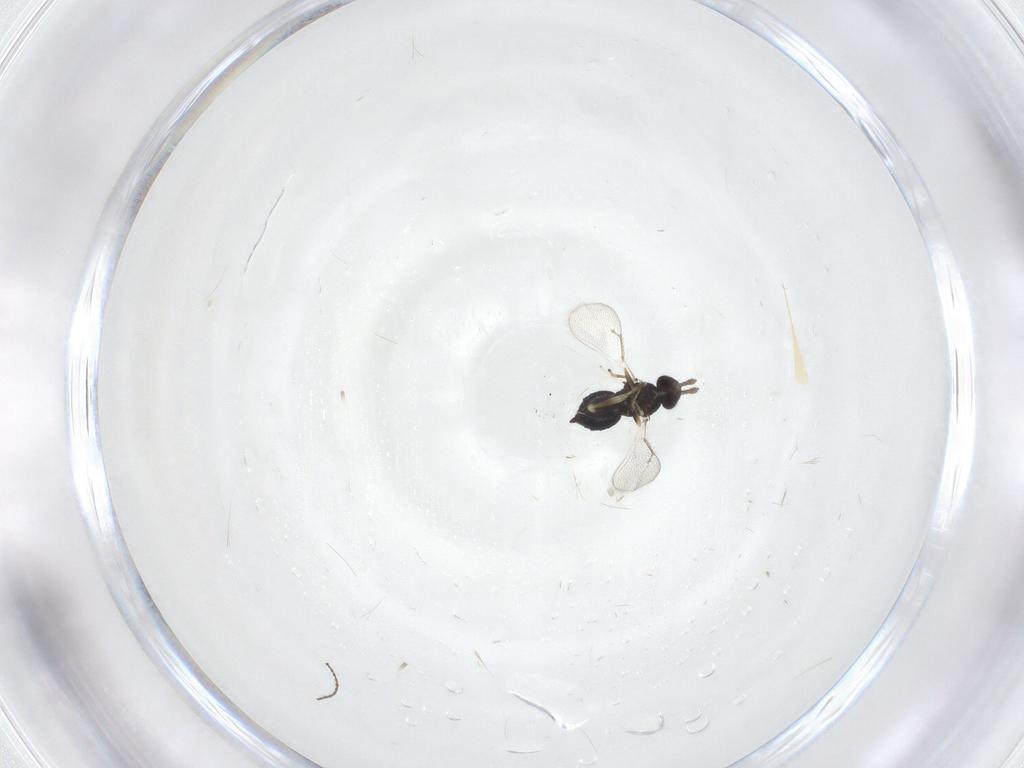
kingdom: Animalia
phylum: Arthropoda
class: Insecta
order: Hymenoptera
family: Eulophidae
